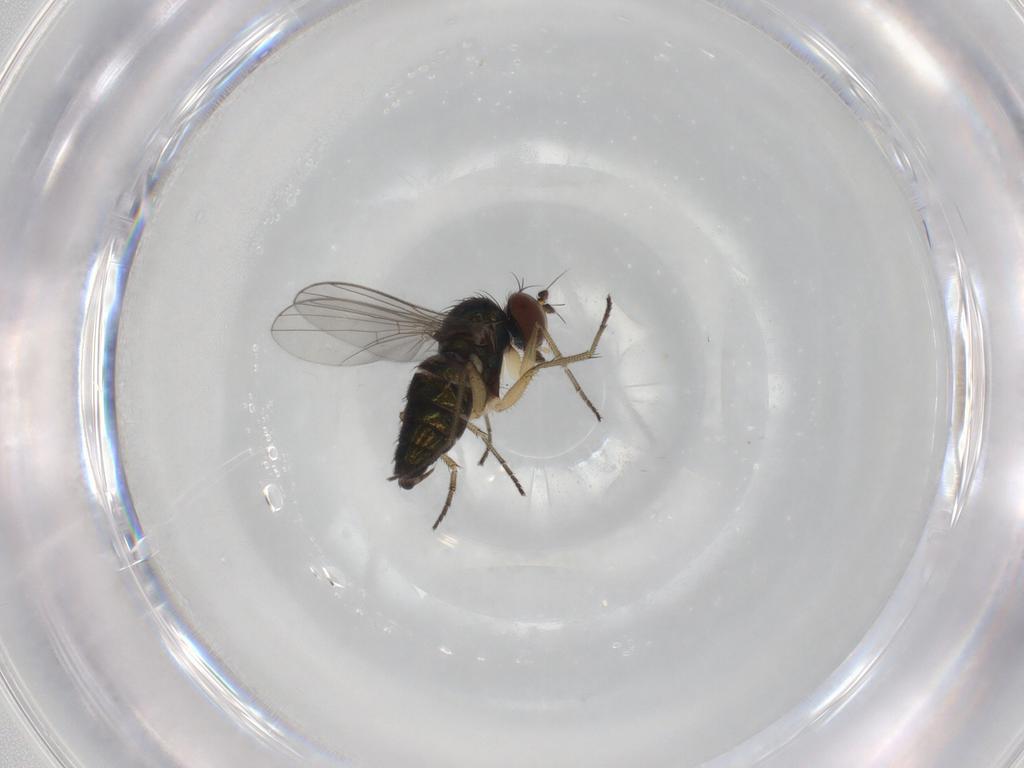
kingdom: Animalia
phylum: Arthropoda
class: Insecta
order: Diptera
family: Dolichopodidae
